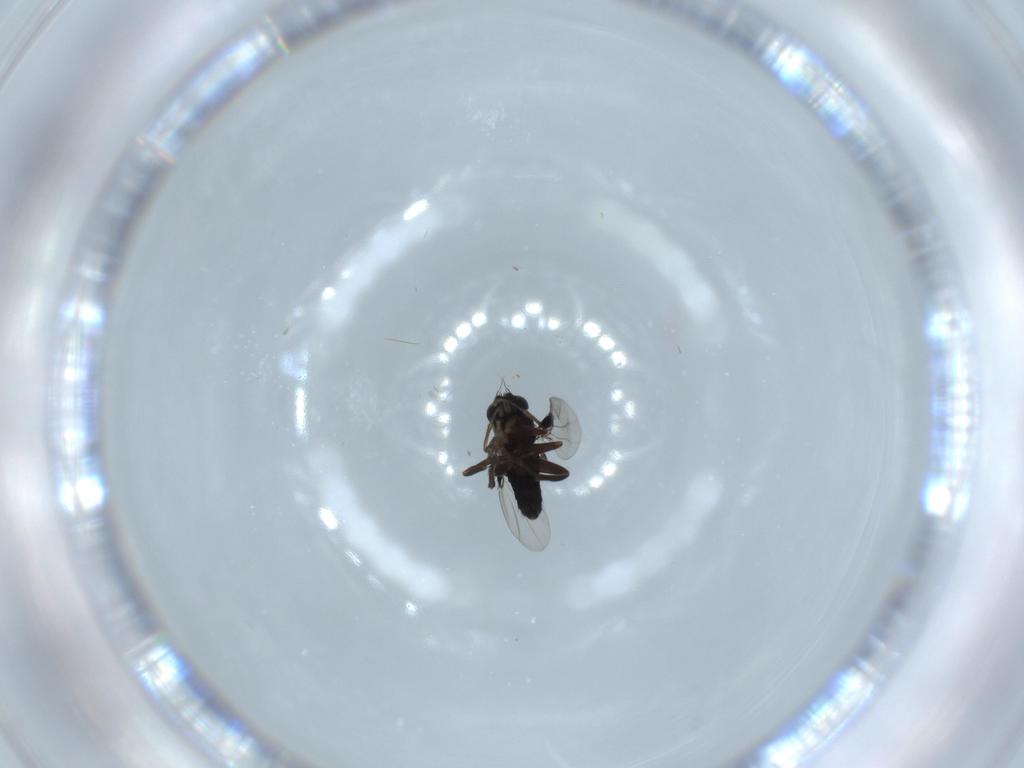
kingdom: Animalia
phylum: Arthropoda
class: Insecta
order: Diptera
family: Phoridae
